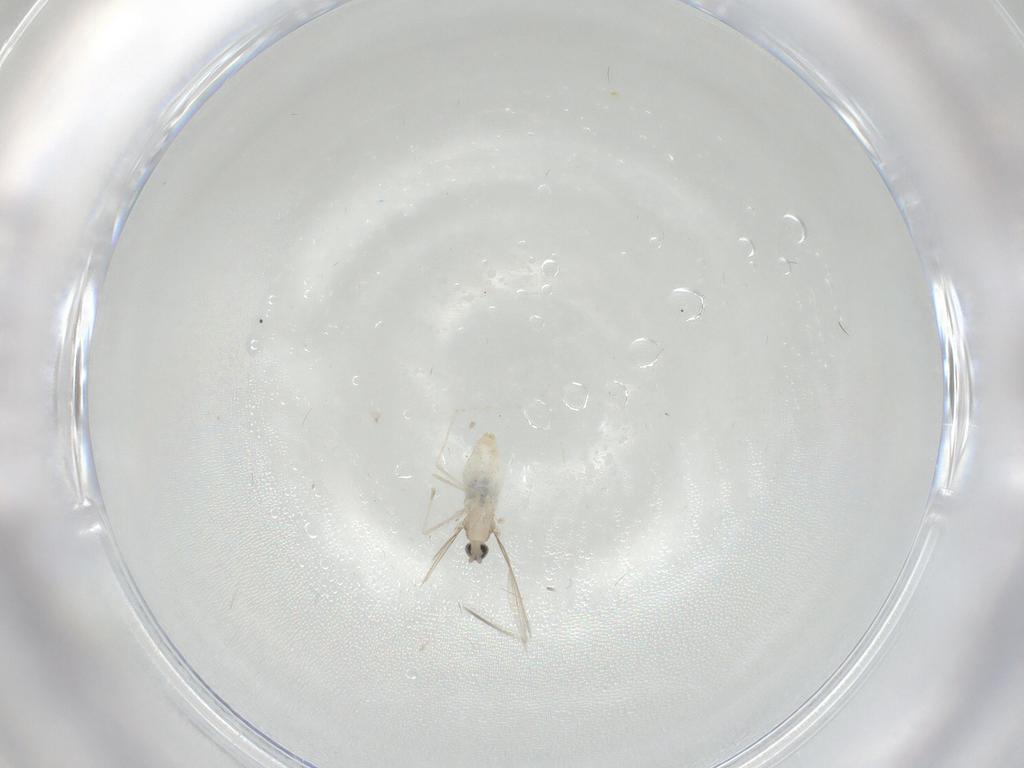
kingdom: Animalia
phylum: Arthropoda
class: Insecta
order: Diptera
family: Cecidomyiidae
